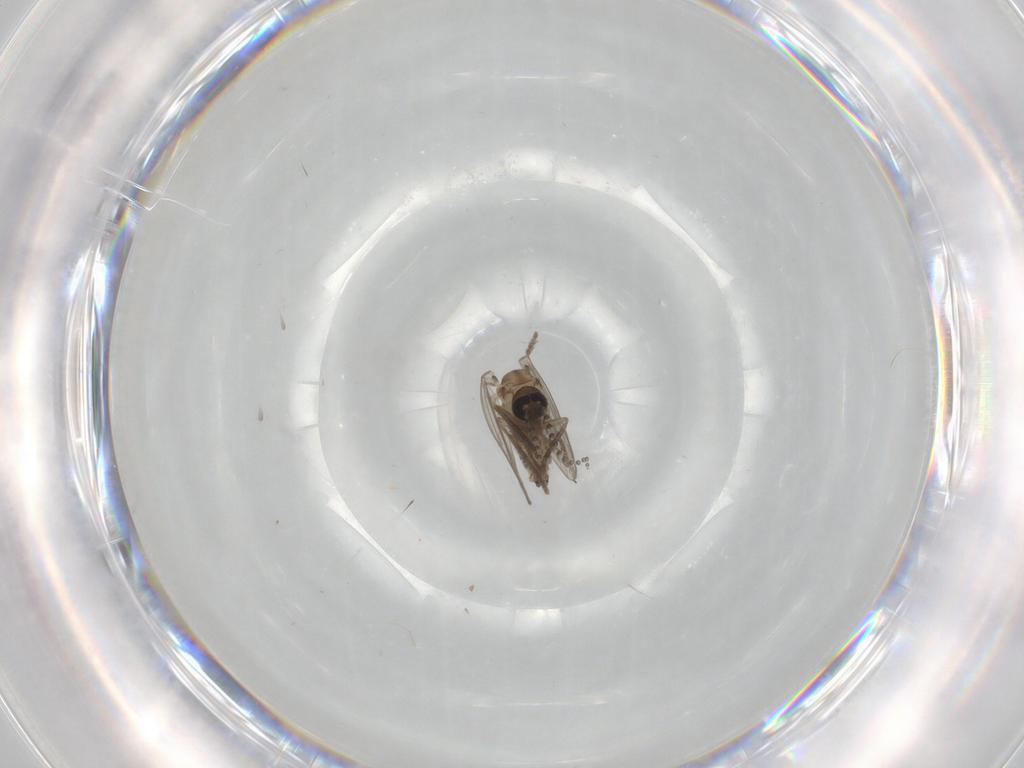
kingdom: Animalia
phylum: Arthropoda
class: Insecta
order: Diptera
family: Psychodidae
